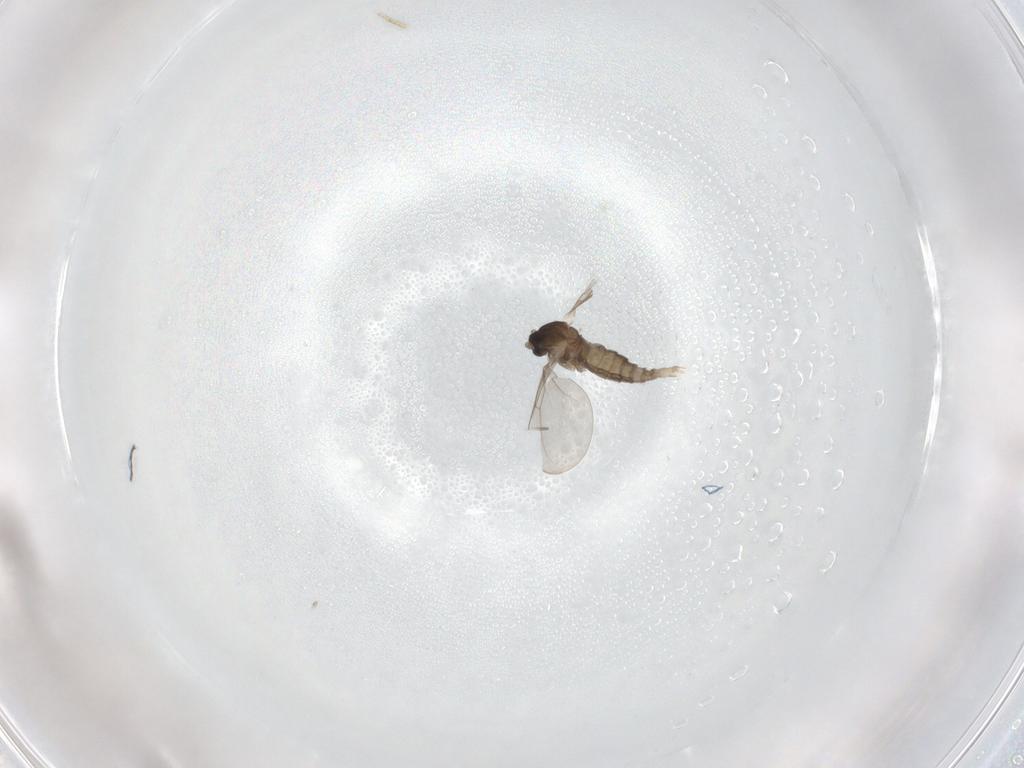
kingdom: Animalia
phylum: Arthropoda
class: Insecta
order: Diptera
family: Cecidomyiidae
